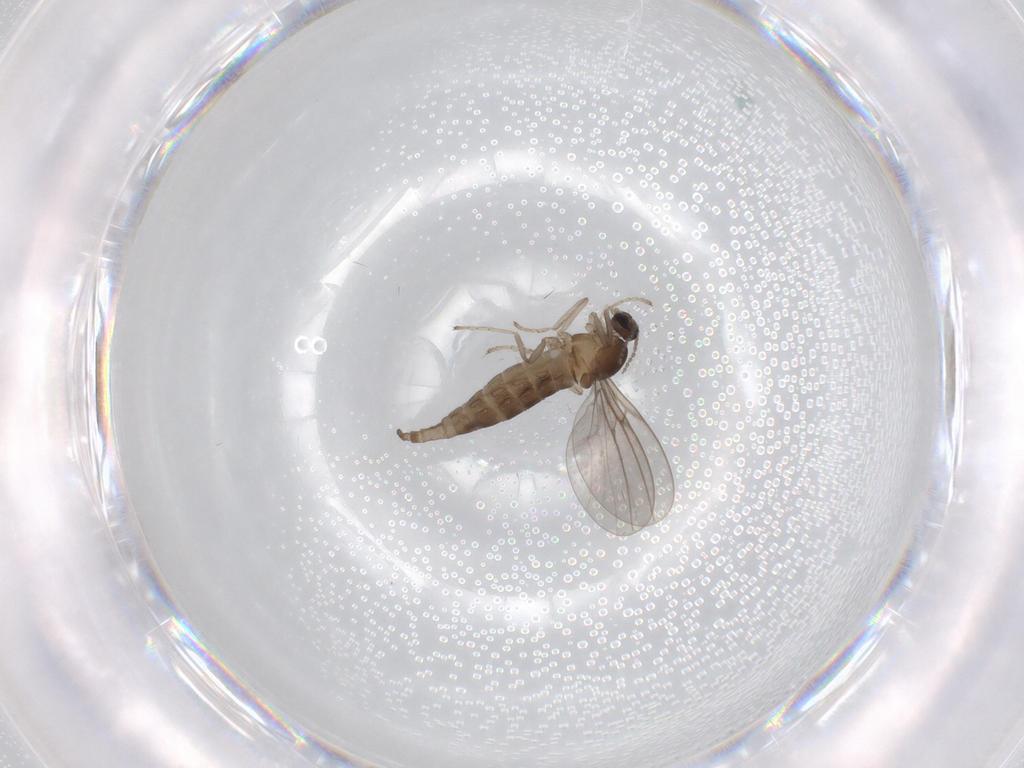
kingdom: Animalia
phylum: Arthropoda
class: Insecta
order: Diptera
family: Cecidomyiidae
